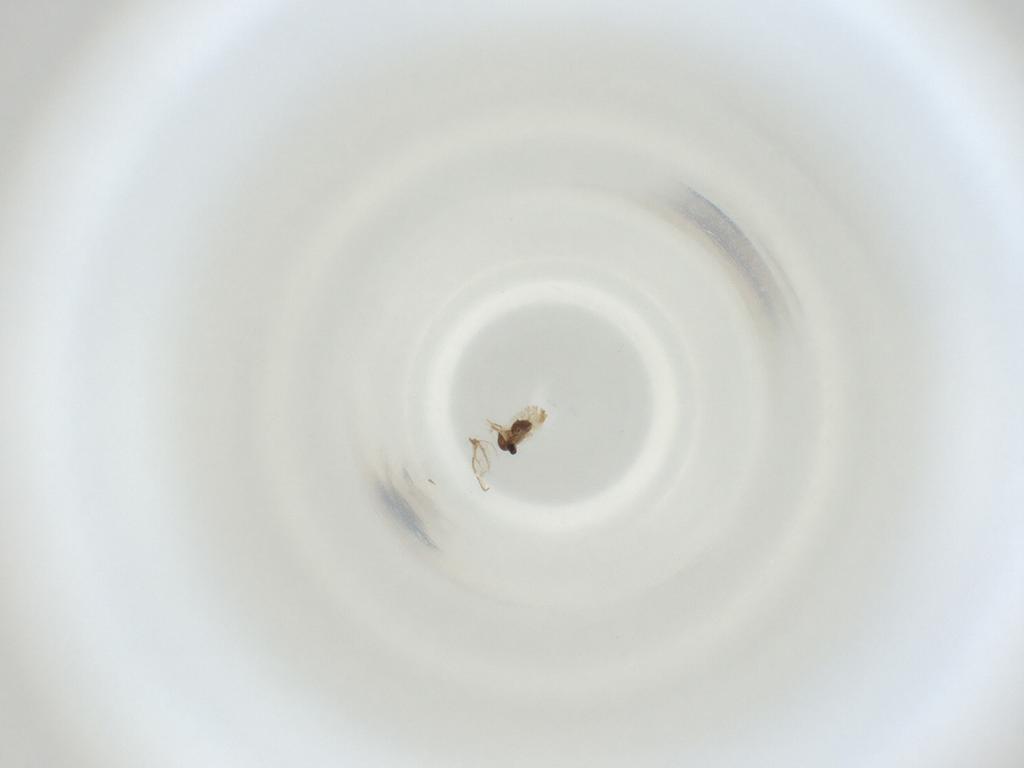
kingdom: Animalia
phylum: Arthropoda
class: Insecta
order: Diptera
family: Cecidomyiidae
